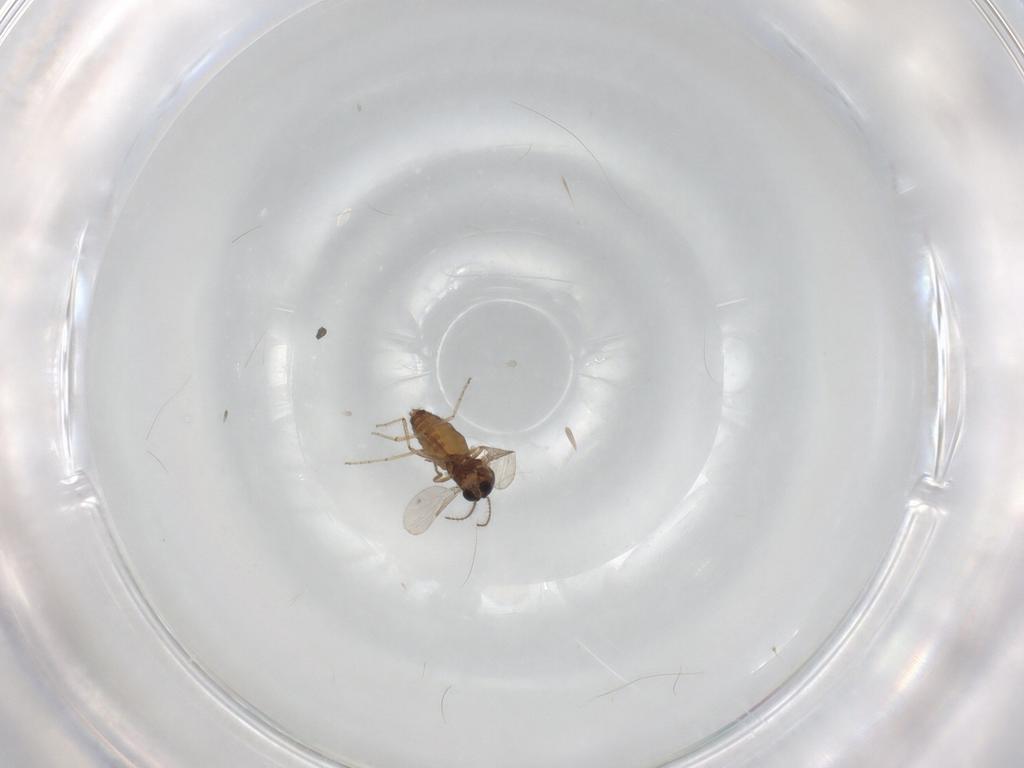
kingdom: Animalia
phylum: Arthropoda
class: Insecta
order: Diptera
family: Ceratopogonidae
